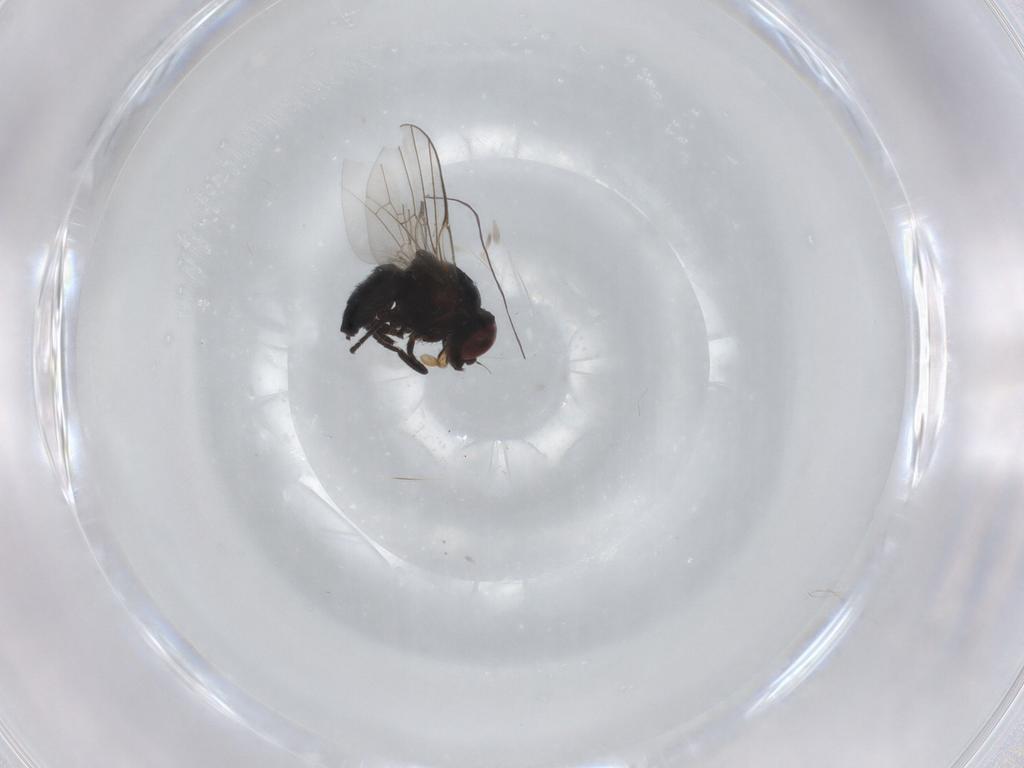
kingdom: Animalia
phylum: Arthropoda
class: Insecta
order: Diptera
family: Agromyzidae
